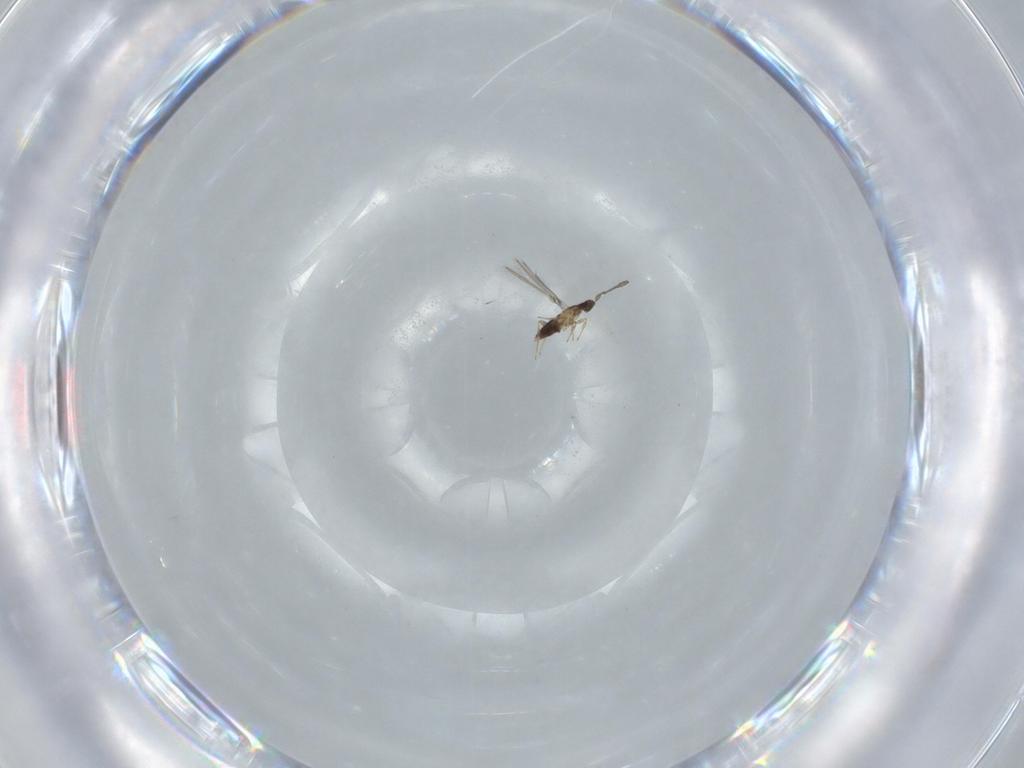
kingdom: Animalia
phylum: Arthropoda
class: Insecta
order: Hymenoptera
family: Mymaridae
